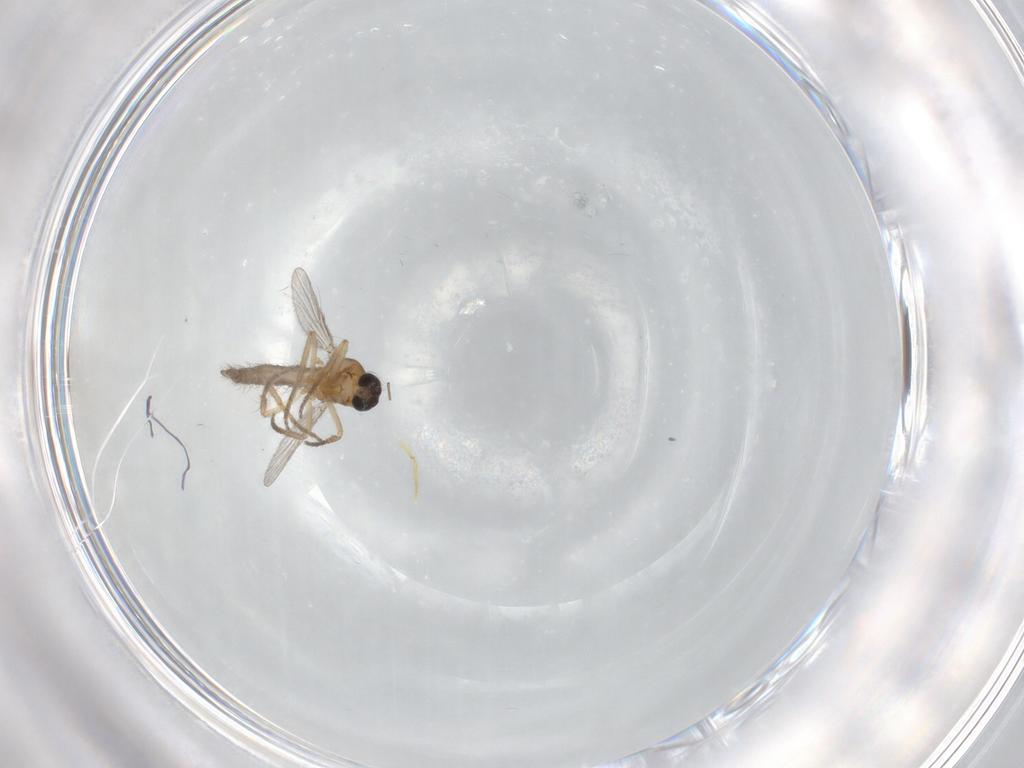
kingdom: Animalia
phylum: Arthropoda
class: Insecta
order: Diptera
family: Ceratopogonidae
